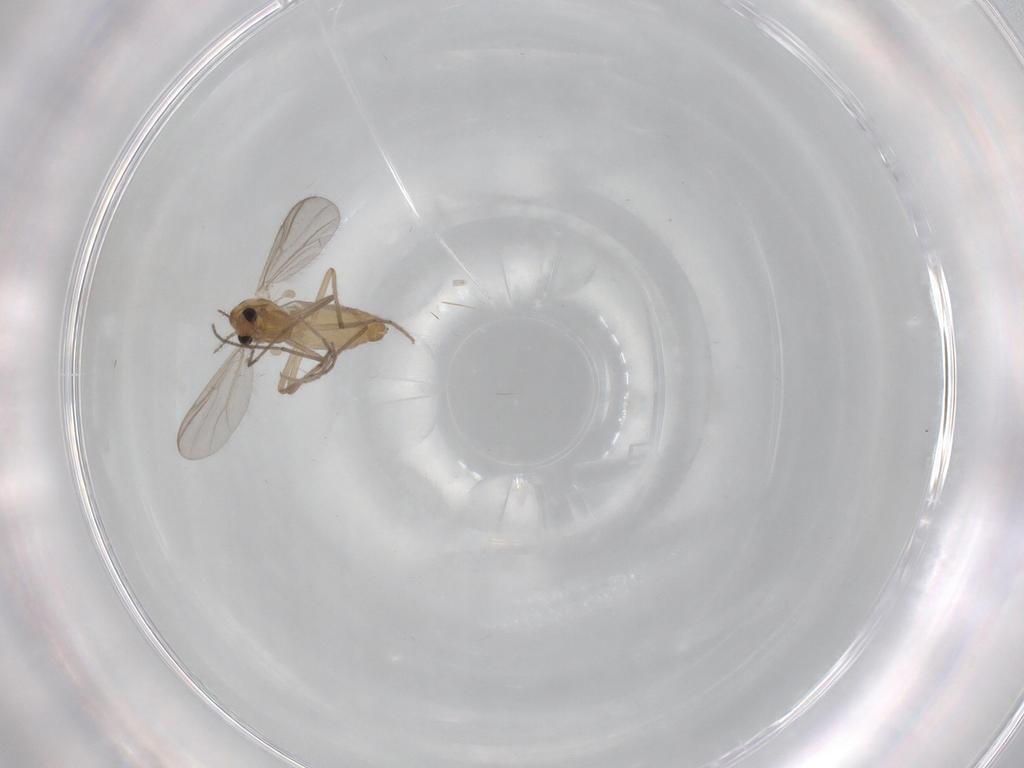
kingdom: Animalia
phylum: Arthropoda
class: Insecta
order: Diptera
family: Chironomidae
